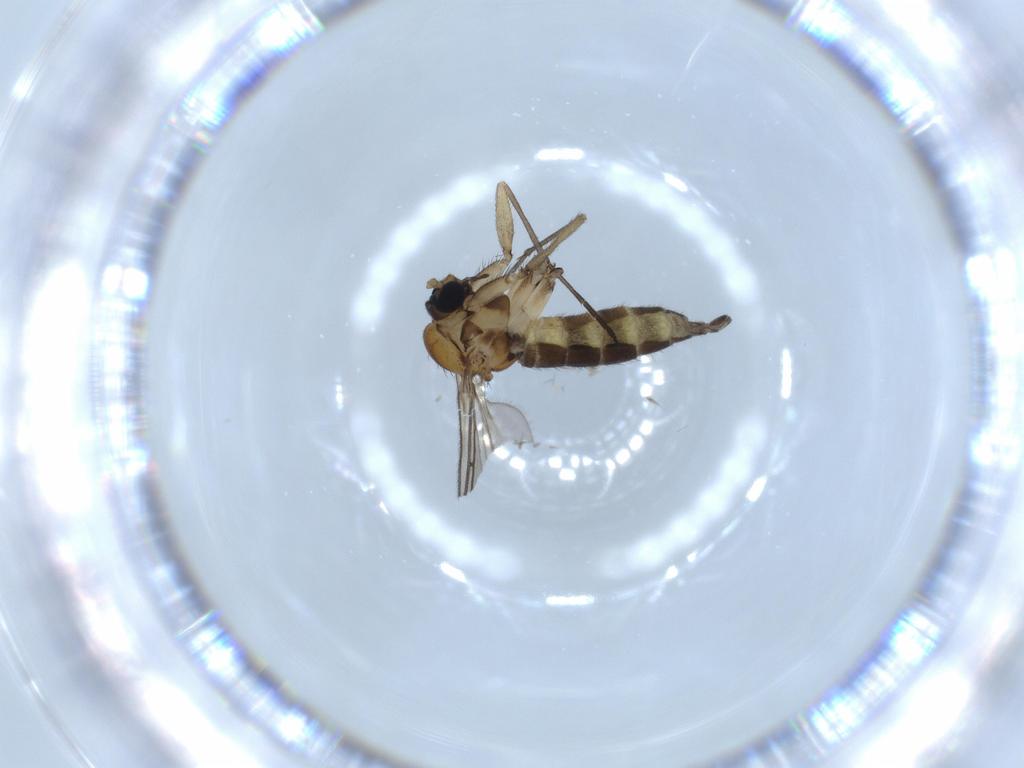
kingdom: Animalia
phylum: Arthropoda
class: Insecta
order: Diptera
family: Sciaridae
